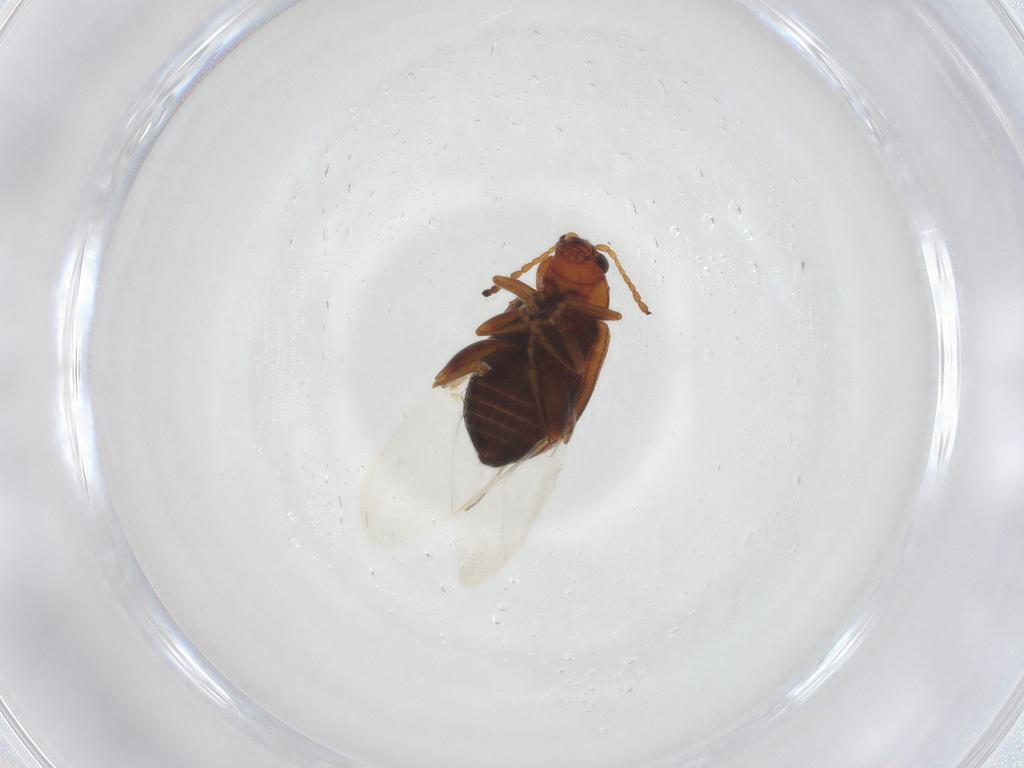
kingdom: Animalia
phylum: Arthropoda
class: Insecta
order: Coleoptera
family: Chrysomelidae
